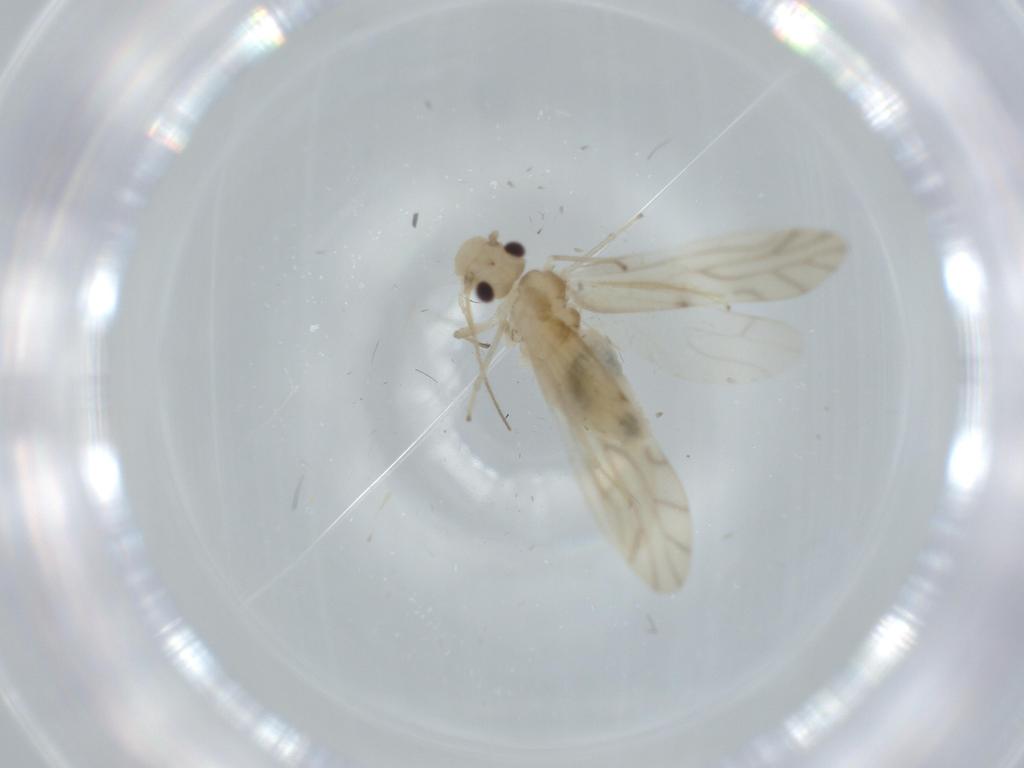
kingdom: Animalia
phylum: Arthropoda
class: Insecta
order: Psocodea
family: Caeciliusidae
